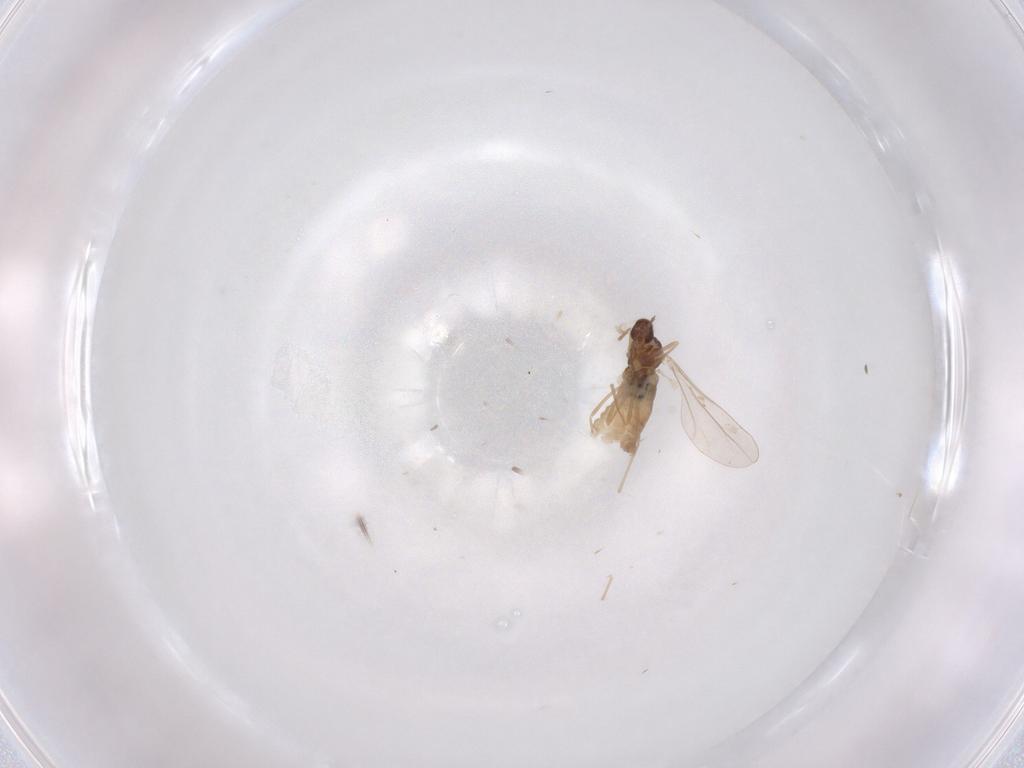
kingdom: Animalia
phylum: Arthropoda
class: Insecta
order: Diptera
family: Cecidomyiidae
